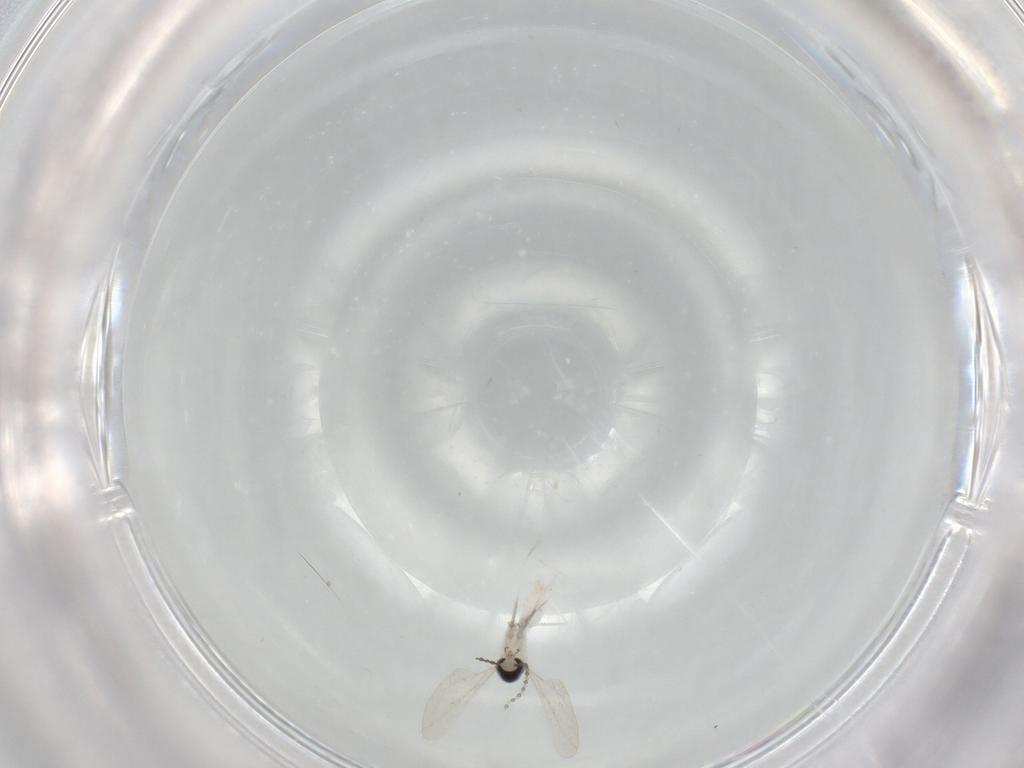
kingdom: Animalia
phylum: Arthropoda
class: Insecta
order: Diptera
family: Cecidomyiidae
